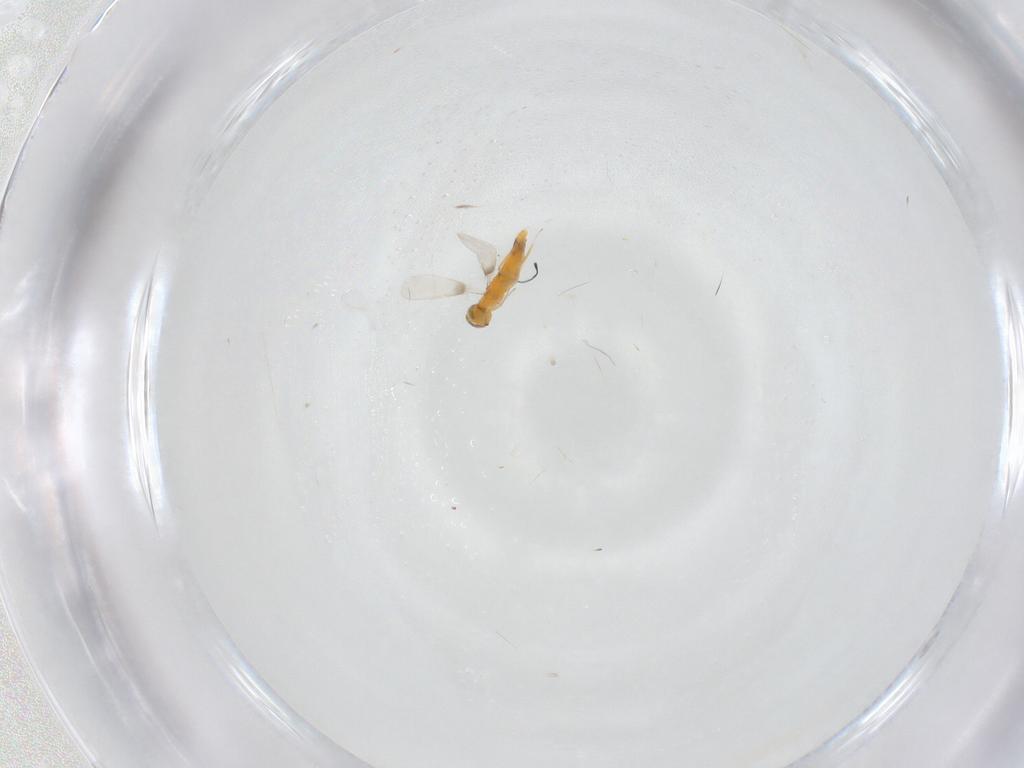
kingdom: Animalia
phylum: Arthropoda
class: Insecta
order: Hymenoptera
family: Aphelinidae
